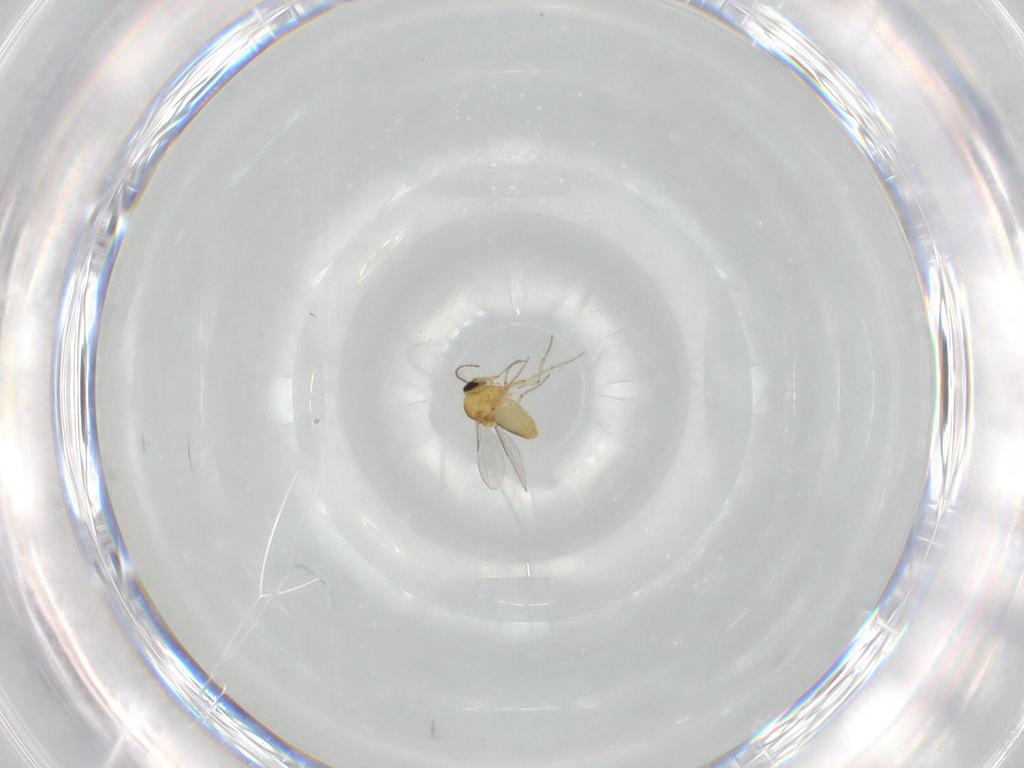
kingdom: Animalia
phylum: Arthropoda
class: Insecta
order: Diptera
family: Ceratopogonidae
